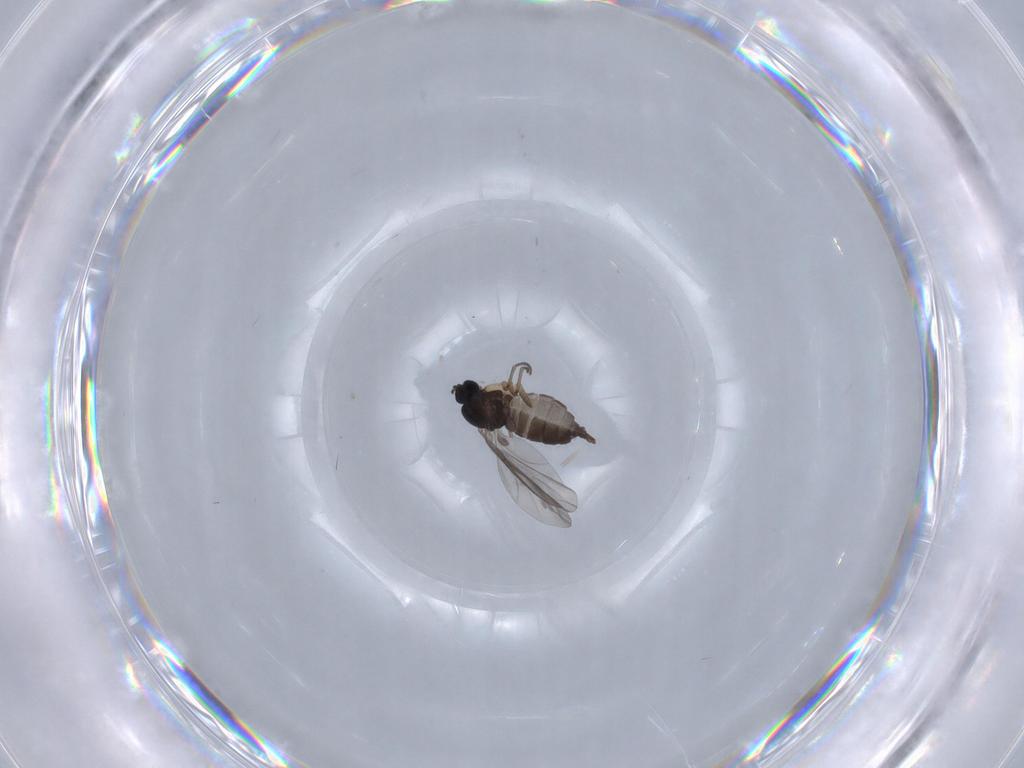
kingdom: Animalia
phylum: Arthropoda
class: Insecta
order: Diptera
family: Sciaridae
